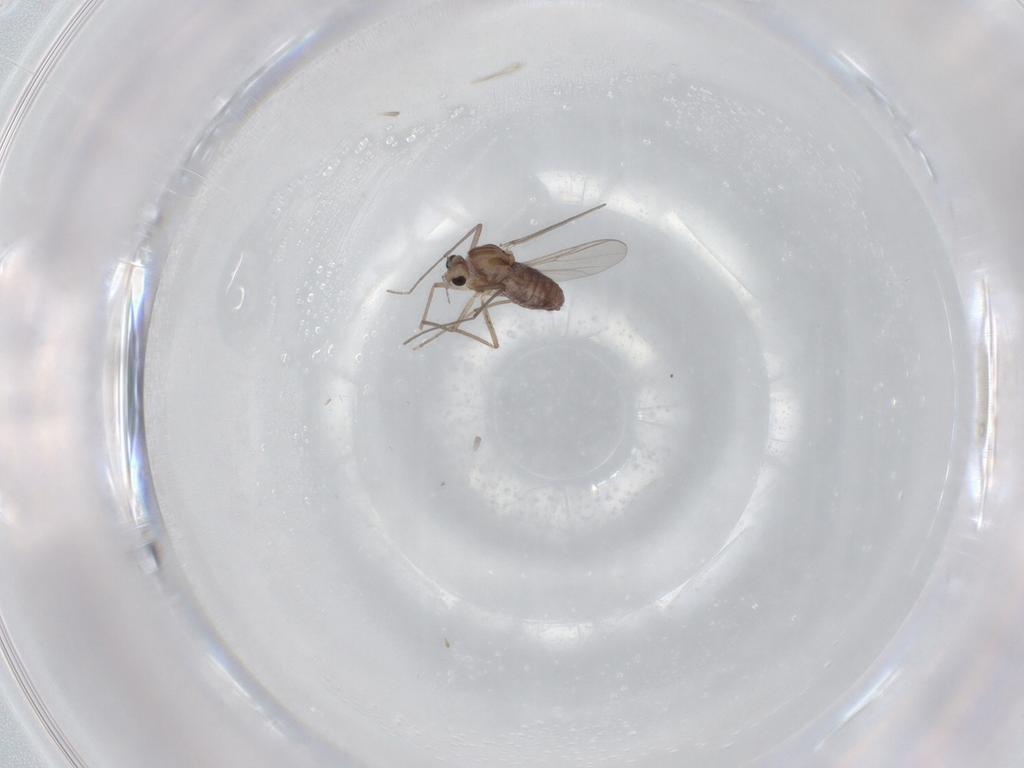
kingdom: Animalia
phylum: Arthropoda
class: Insecta
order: Diptera
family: Chironomidae
